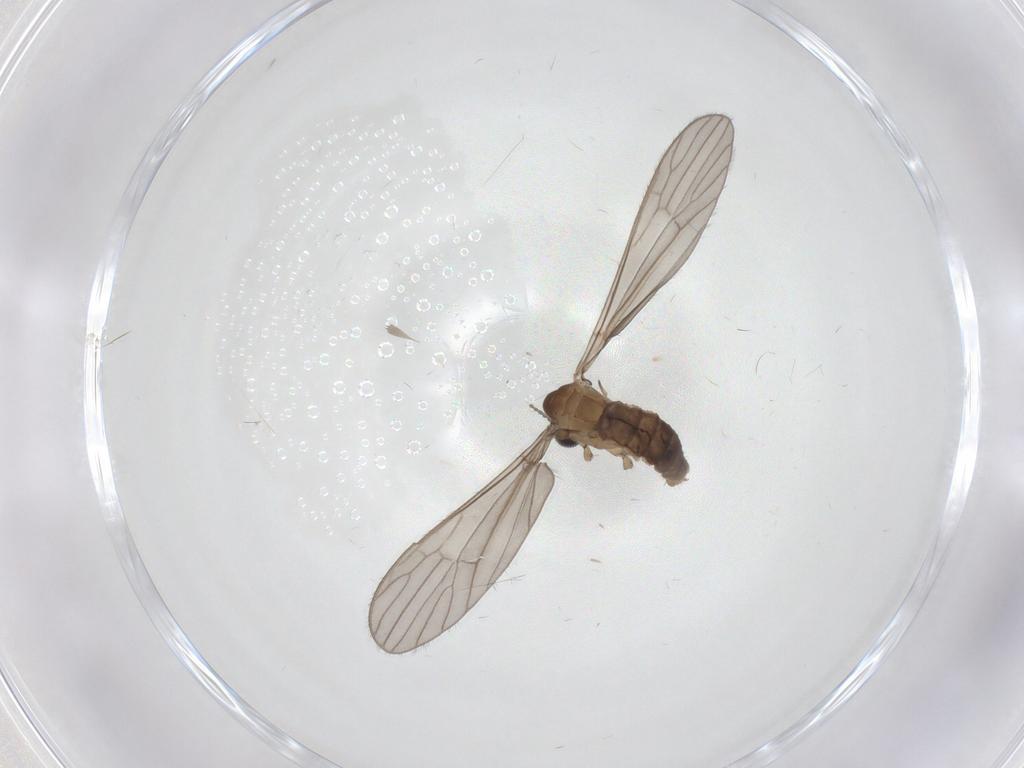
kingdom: Animalia
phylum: Arthropoda
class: Insecta
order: Diptera
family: Cecidomyiidae
